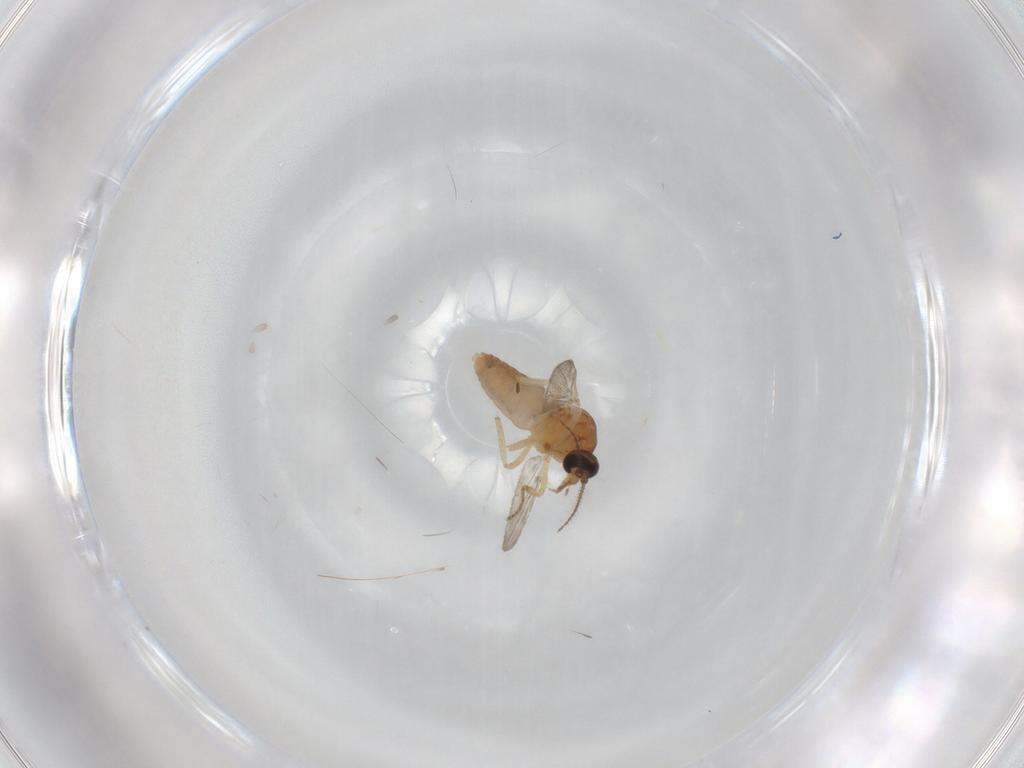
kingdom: Animalia
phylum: Arthropoda
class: Insecta
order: Diptera
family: Ceratopogonidae
